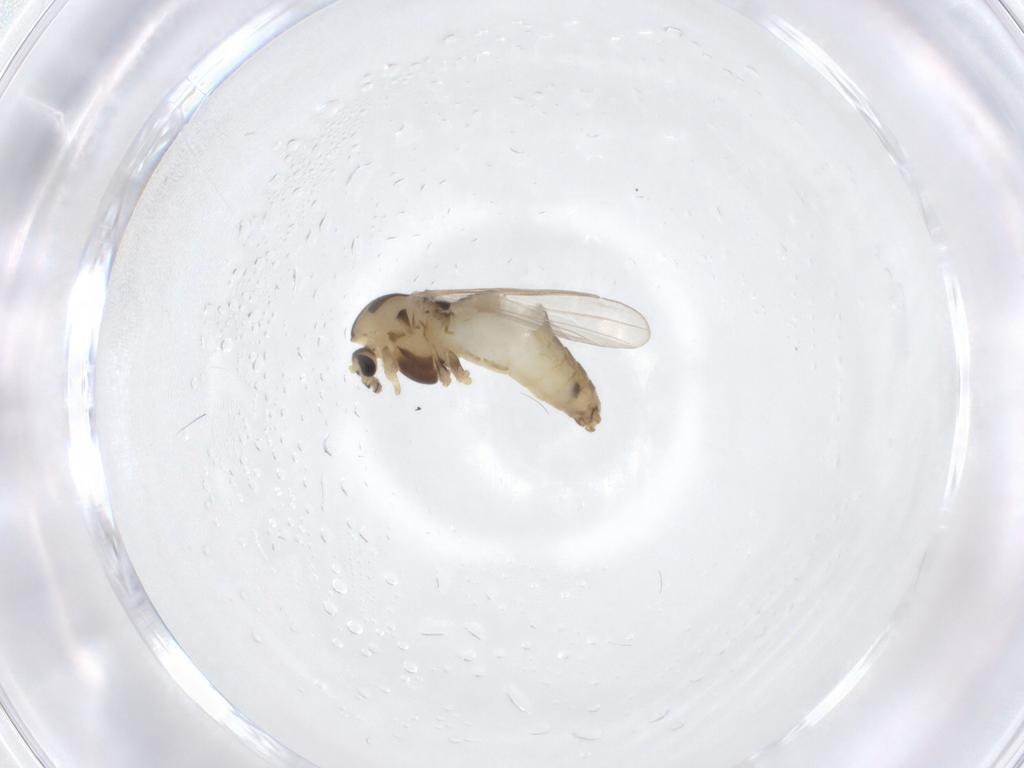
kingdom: Animalia
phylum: Arthropoda
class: Insecta
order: Diptera
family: Chironomidae
